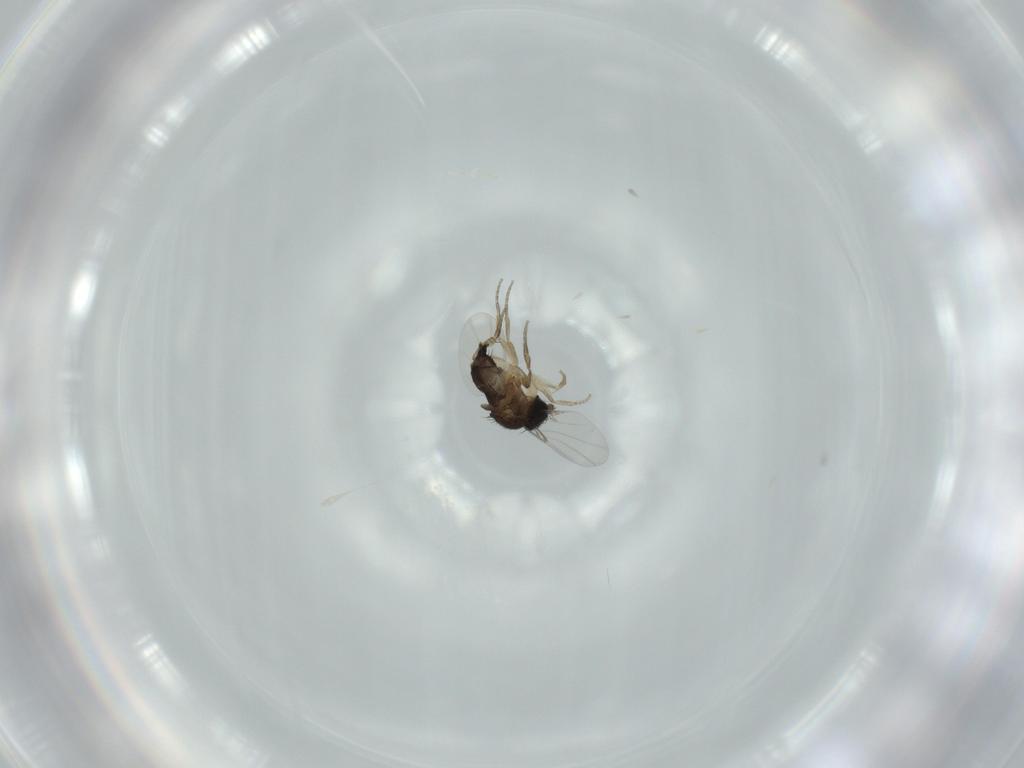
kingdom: Animalia
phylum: Arthropoda
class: Insecta
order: Diptera
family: Phoridae
